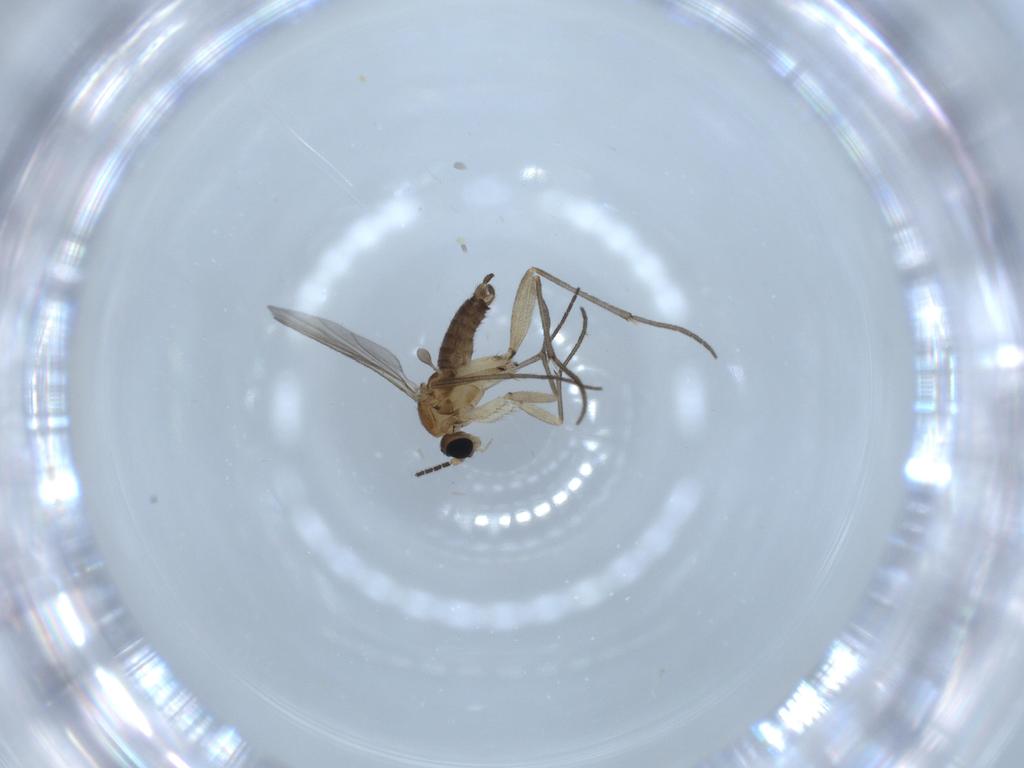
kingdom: Animalia
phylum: Arthropoda
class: Insecta
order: Diptera
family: Sciaridae
